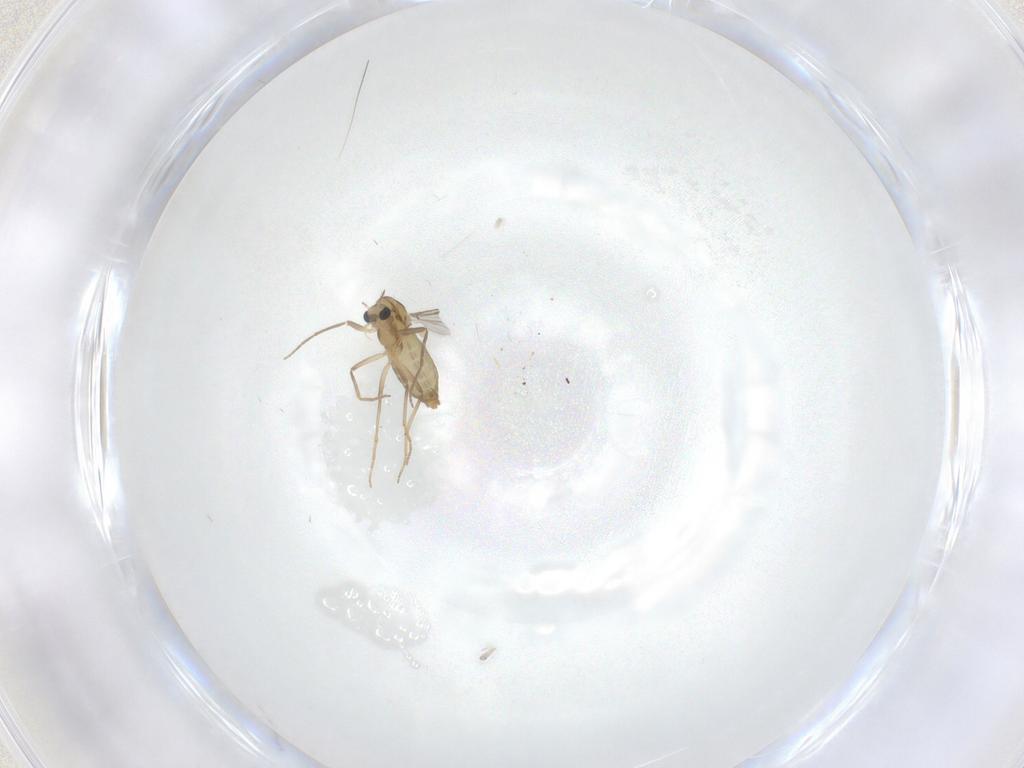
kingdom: Animalia
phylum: Arthropoda
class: Insecta
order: Diptera
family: Chironomidae
